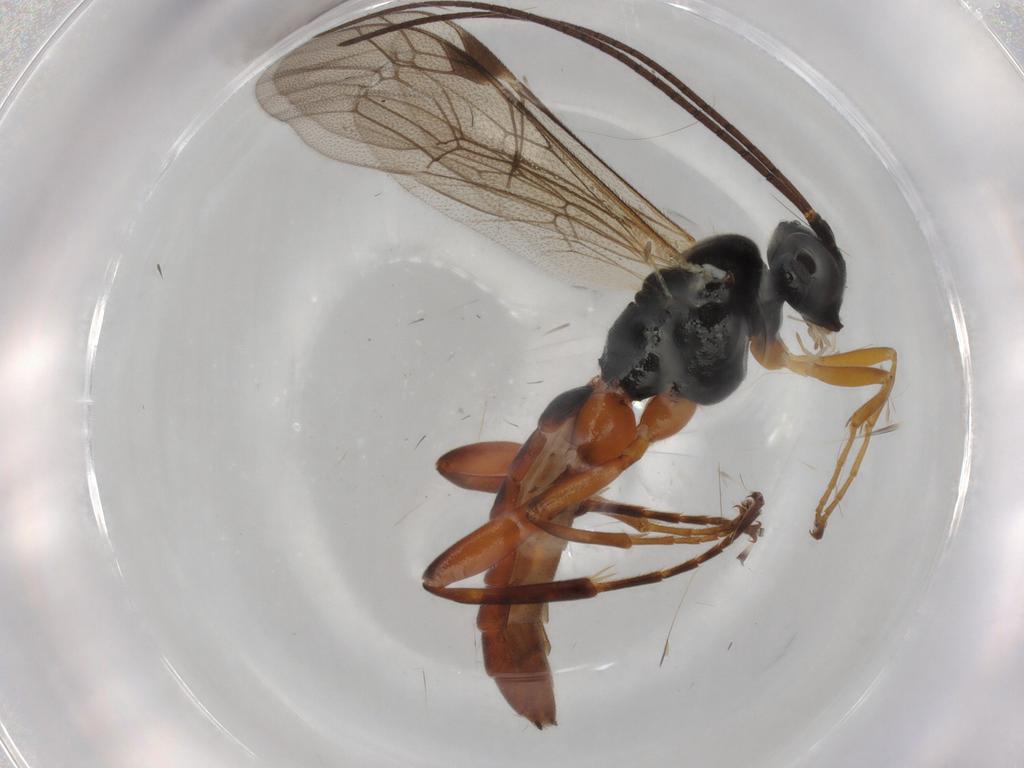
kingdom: Animalia
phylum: Arthropoda
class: Insecta
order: Hymenoptera
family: Ichneumonidae
